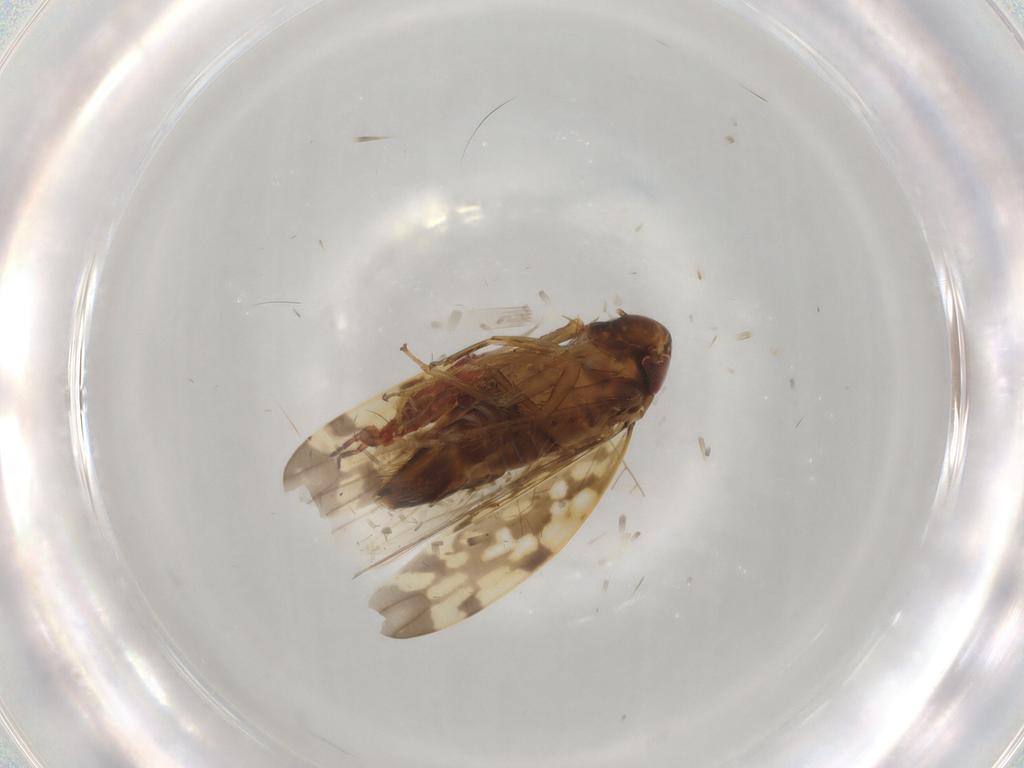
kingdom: Animalia
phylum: Arthropoda
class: Insecta
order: Hemiptera
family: Cicadellidae
